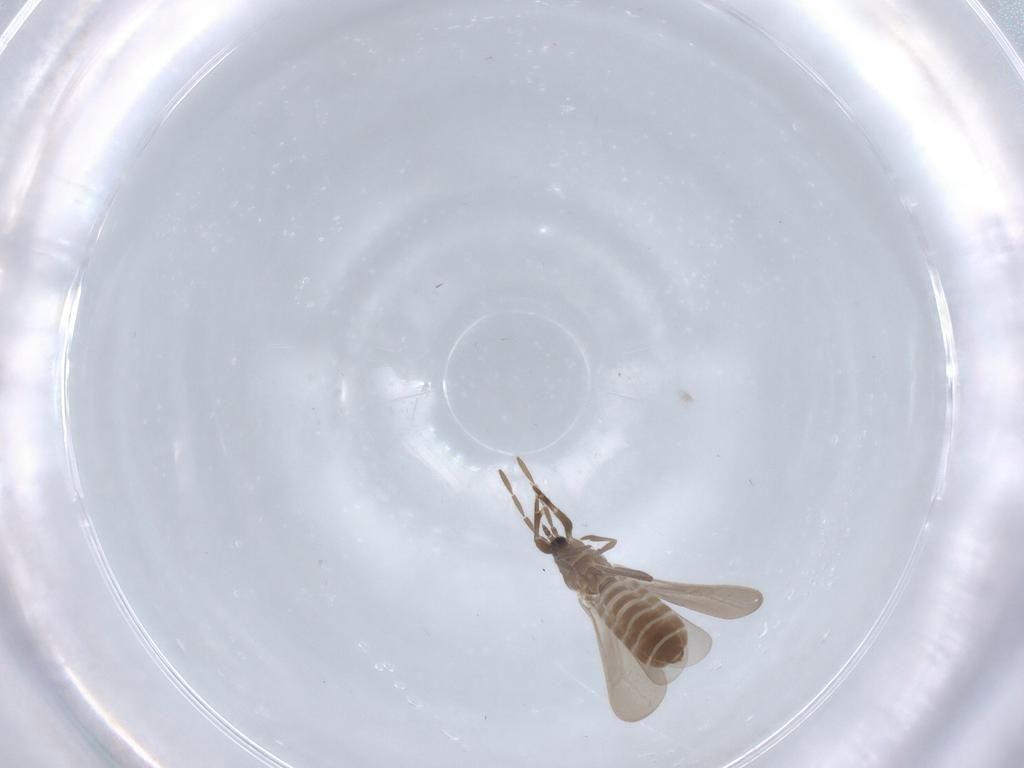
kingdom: Animalia
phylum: Arthropoda
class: Insecta
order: Hemiptera
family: Enicocephalidae
